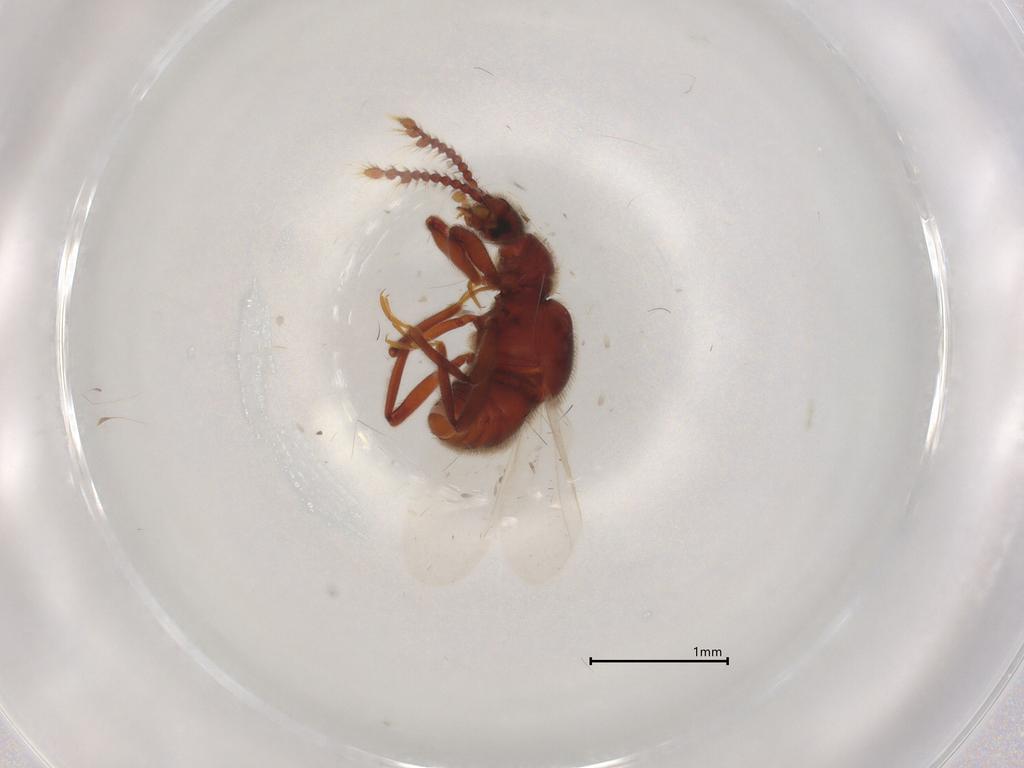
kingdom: Animalia
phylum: Arthropoda
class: Insecta
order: Coleoptera
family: Staphylinidae
